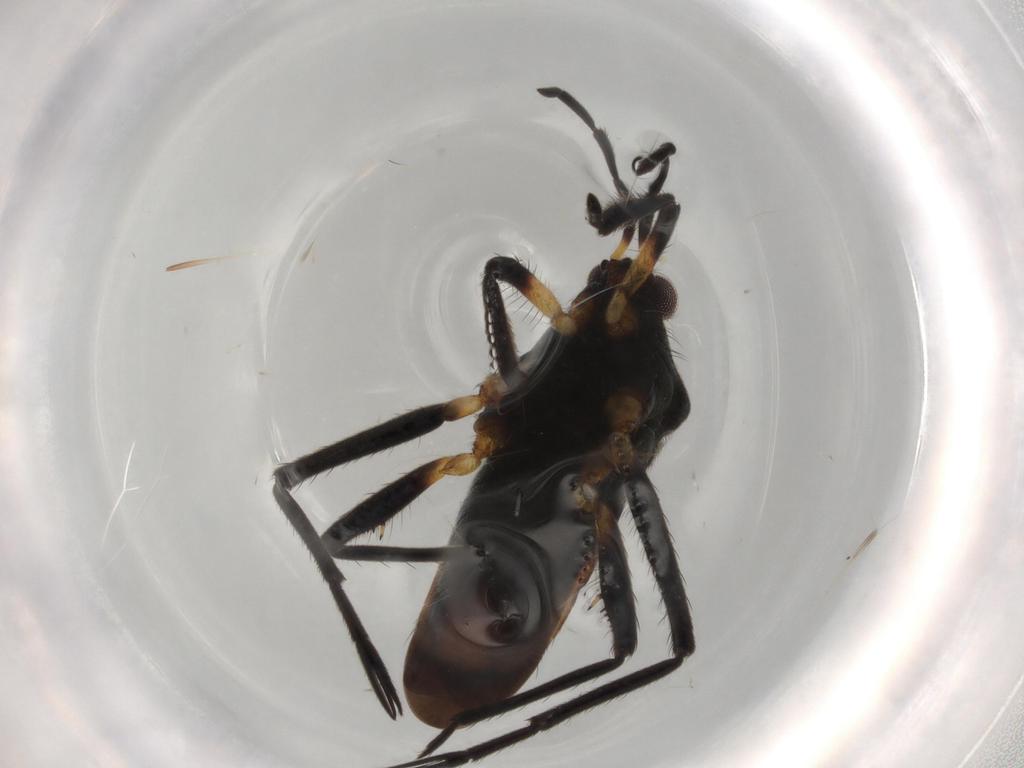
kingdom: Animalia
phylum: Arthropoda
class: Insecta
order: Hemiptera
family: Veliidae
